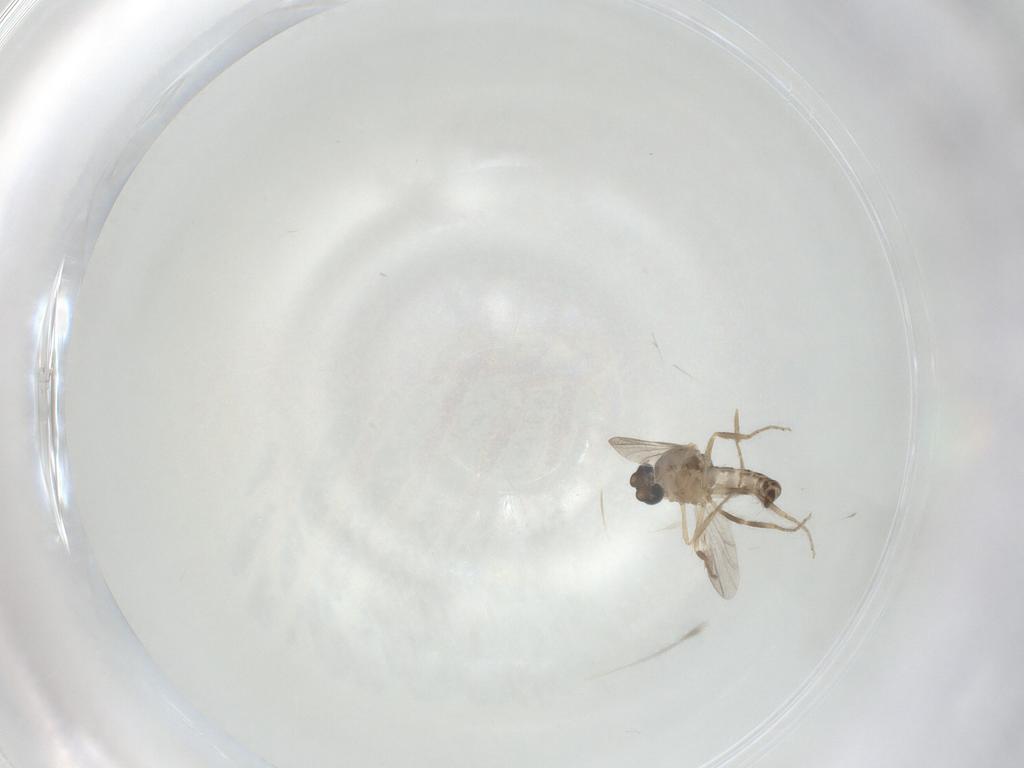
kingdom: Animalia
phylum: Arthropoda
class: Insecta
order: Diptera
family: Ceratopogonidae
